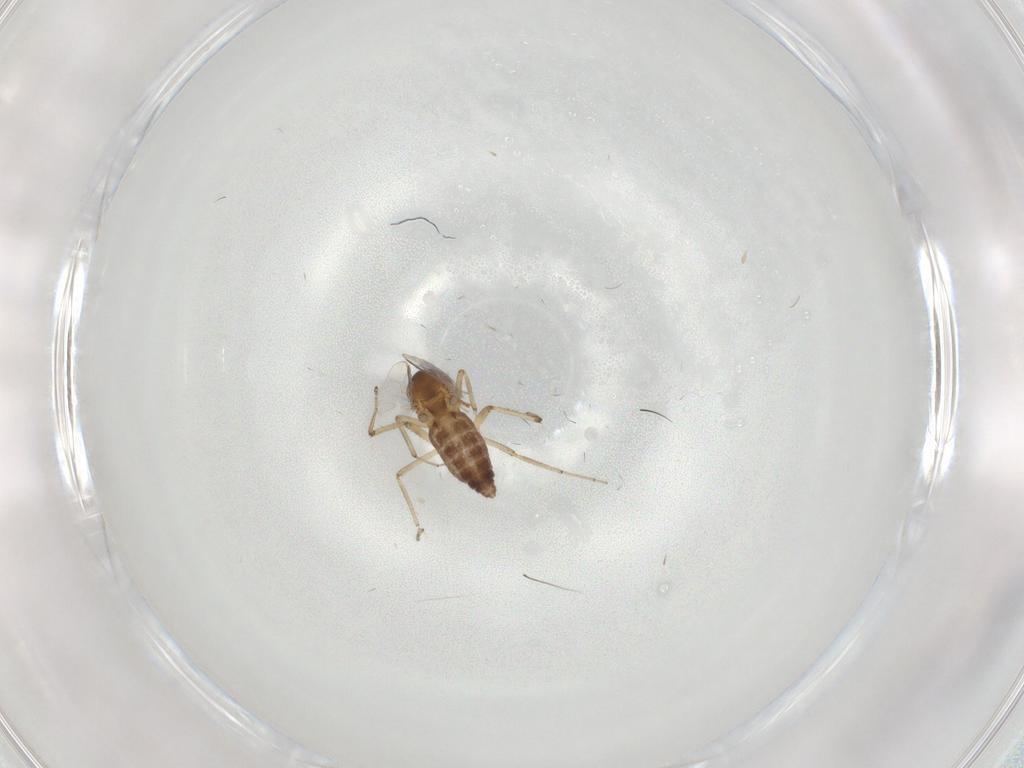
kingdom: Animalia
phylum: Arthropoda
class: Insecta
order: Diptera
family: Ceratopogonidae
